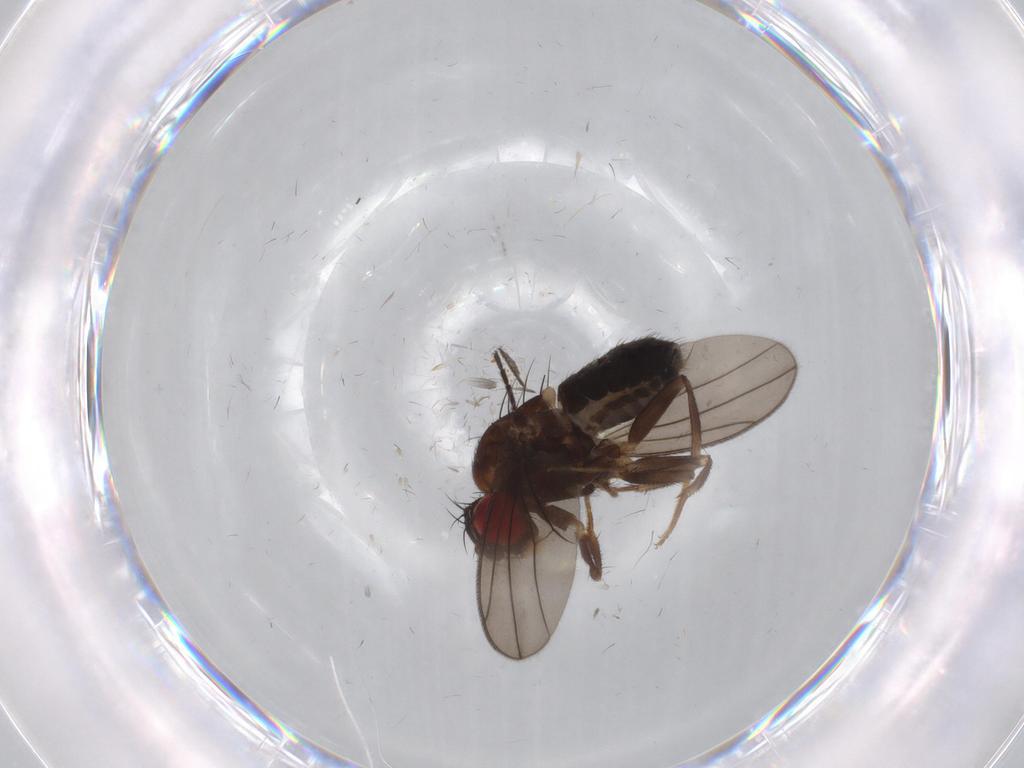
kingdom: Animalia
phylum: Arthropoda
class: Insecta
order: Diptera
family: Drosophilidae
